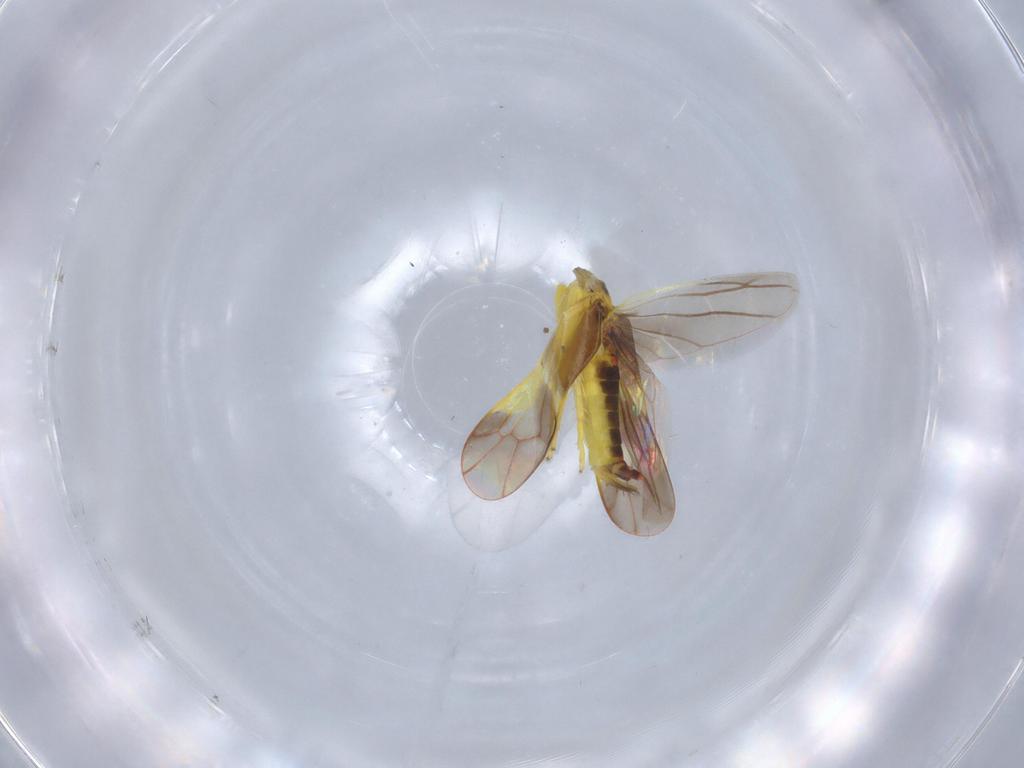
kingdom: Animalia
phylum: Arthropoda
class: Insecta
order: Hemiptera
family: Cicadellidae
